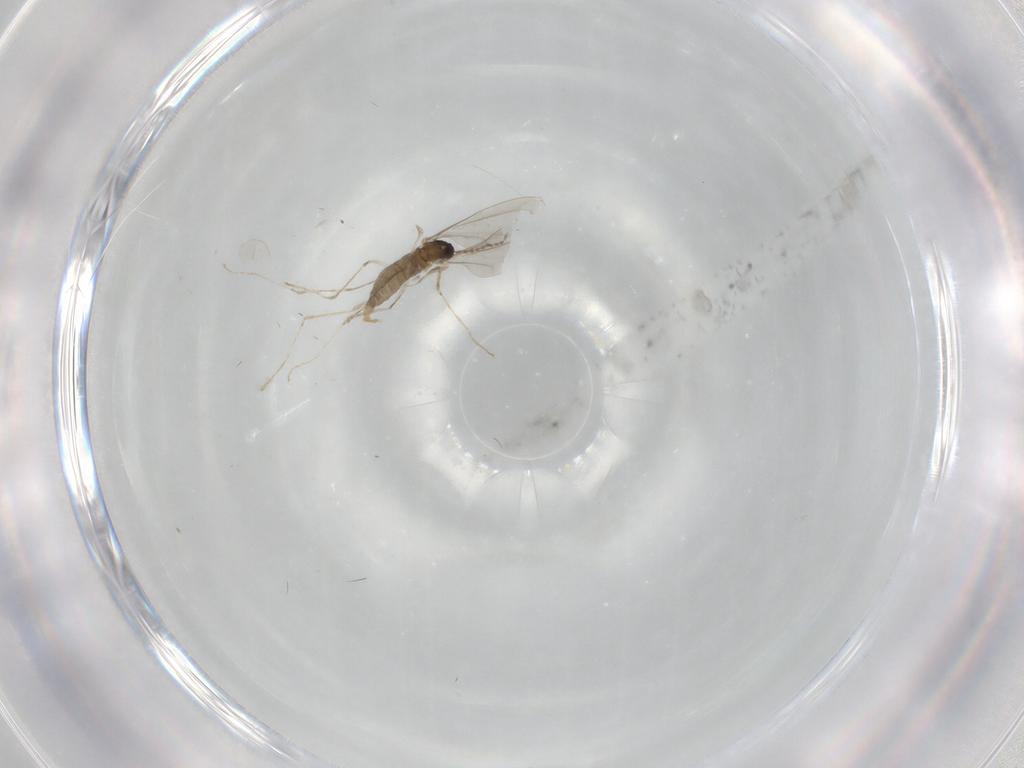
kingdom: Animalia
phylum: Arthropoda
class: Insecta
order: Diptera
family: Cecidomyiidae
